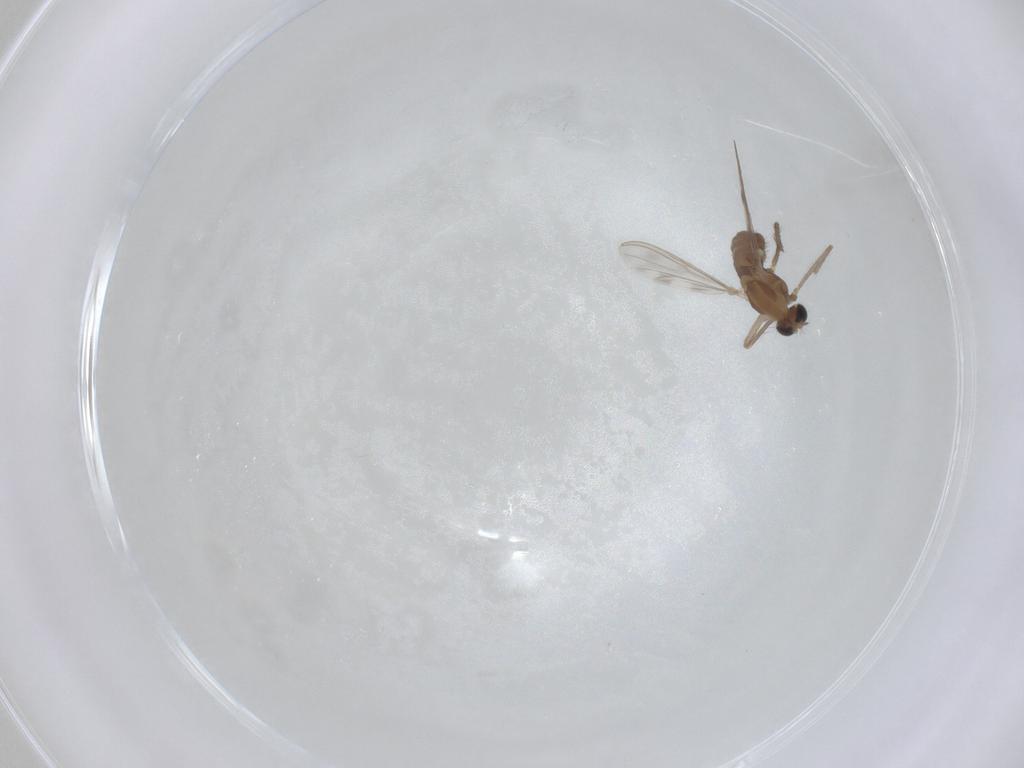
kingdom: Animalia
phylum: Arthropoda
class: Insecta
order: Diptera
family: Chironomidae
